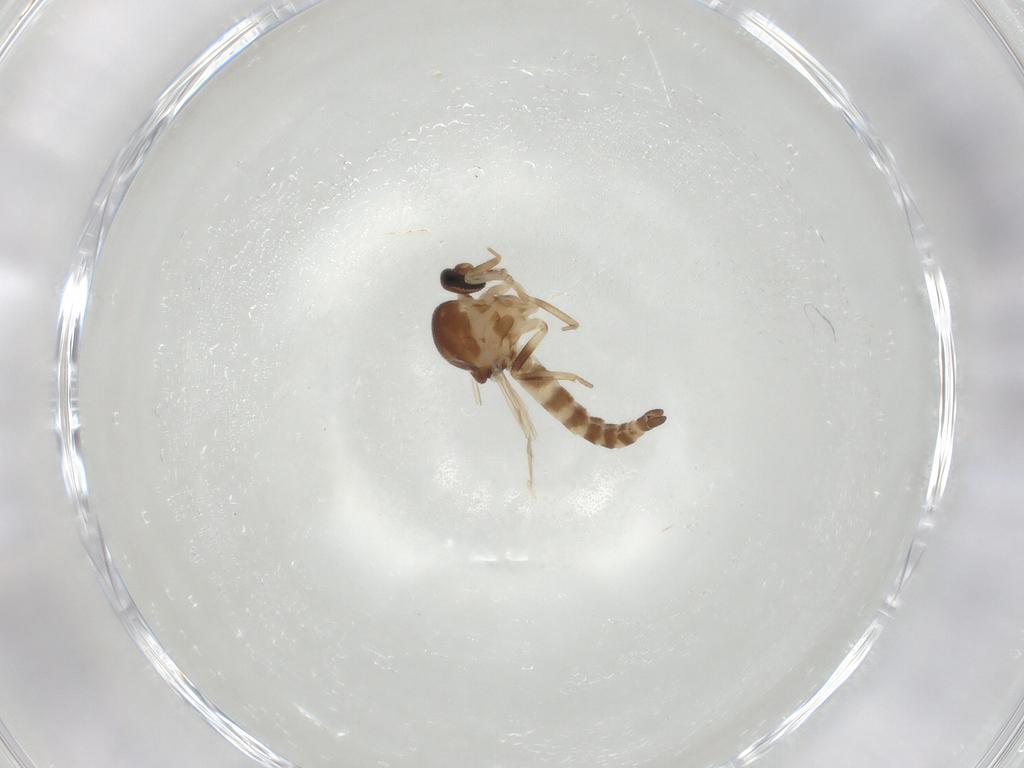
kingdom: Animalia
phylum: Arthropoda
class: Insecta
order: Diptera
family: Ceratopogonidae
